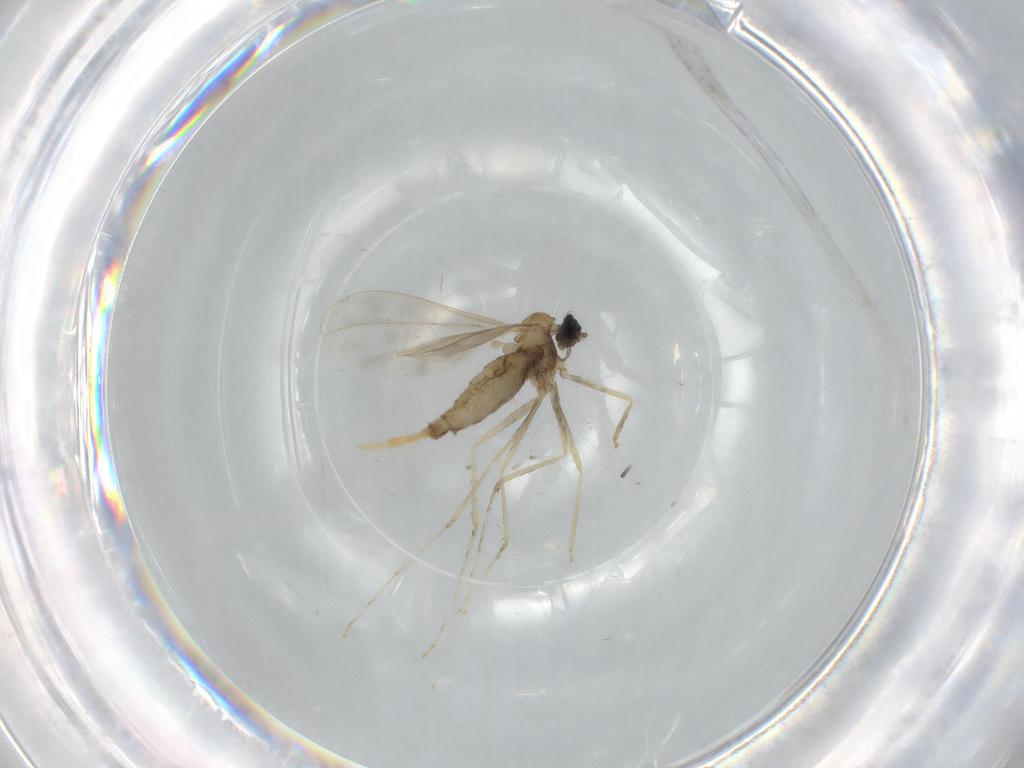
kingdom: Animalia
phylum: Arthropoda
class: Insecta
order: Diptera
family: Cecidomyiidae
